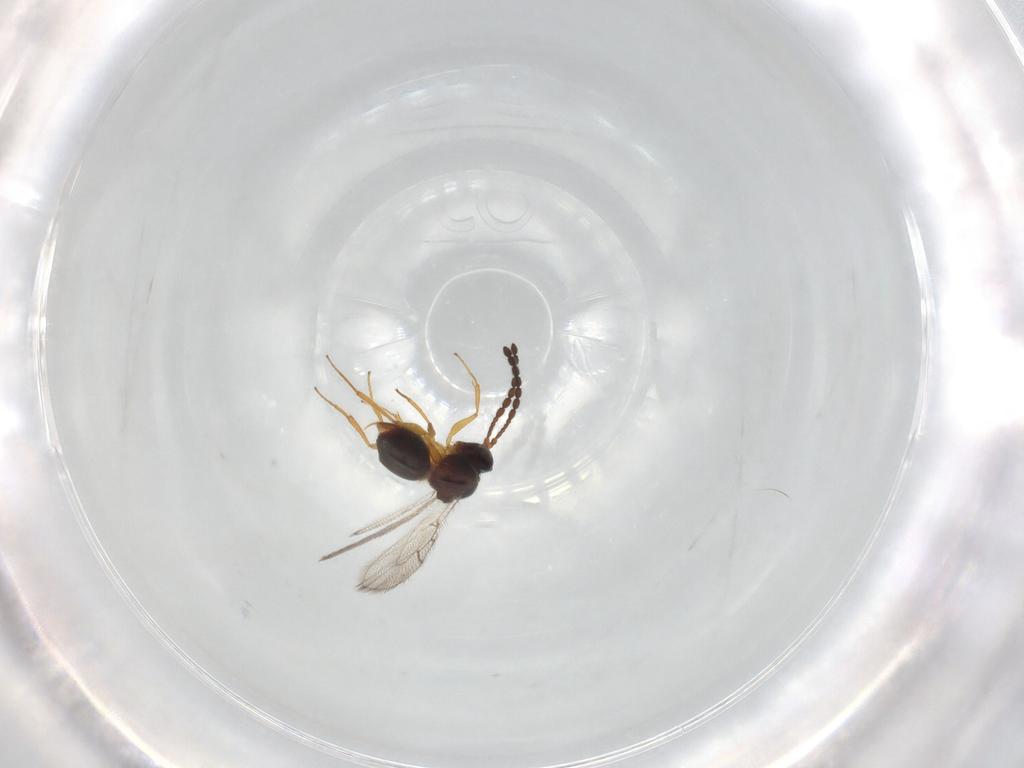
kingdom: Animalia
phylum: Arthropoda
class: Insecta
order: Hymenoptera
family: Figitidae
